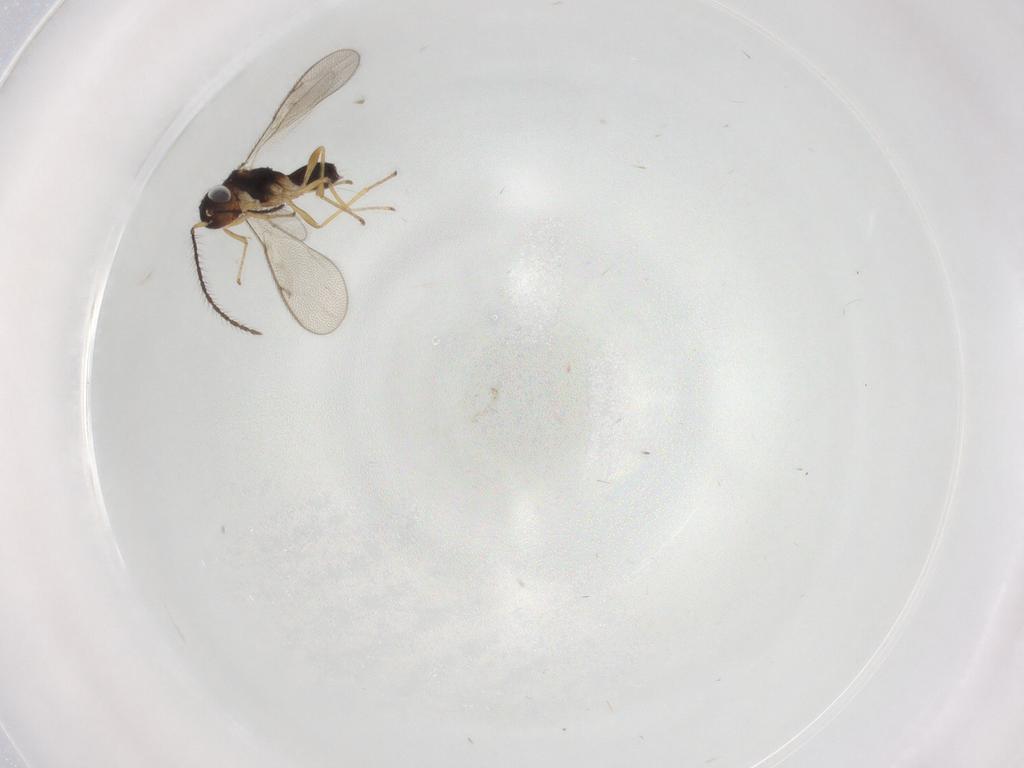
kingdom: Animalia
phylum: Arthropoda
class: Insecta
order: Hymenoptera
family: Diparidae
